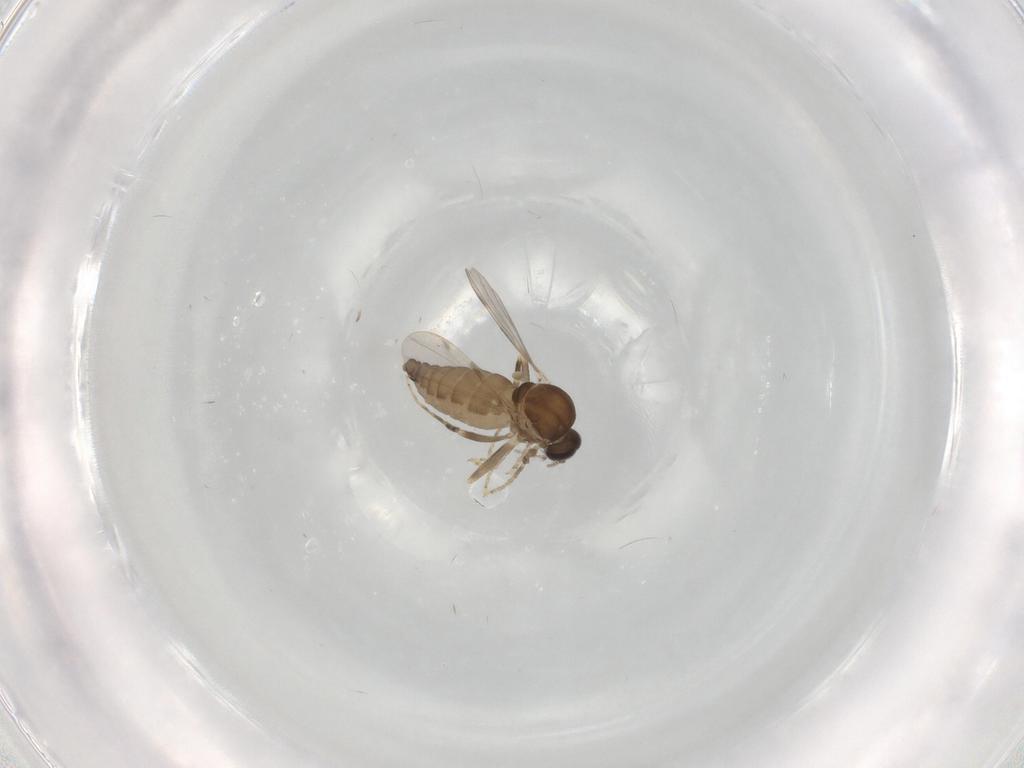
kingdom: Animalia
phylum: Arthropoda
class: Insecta
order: Diptera
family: Ceratopogonidae
